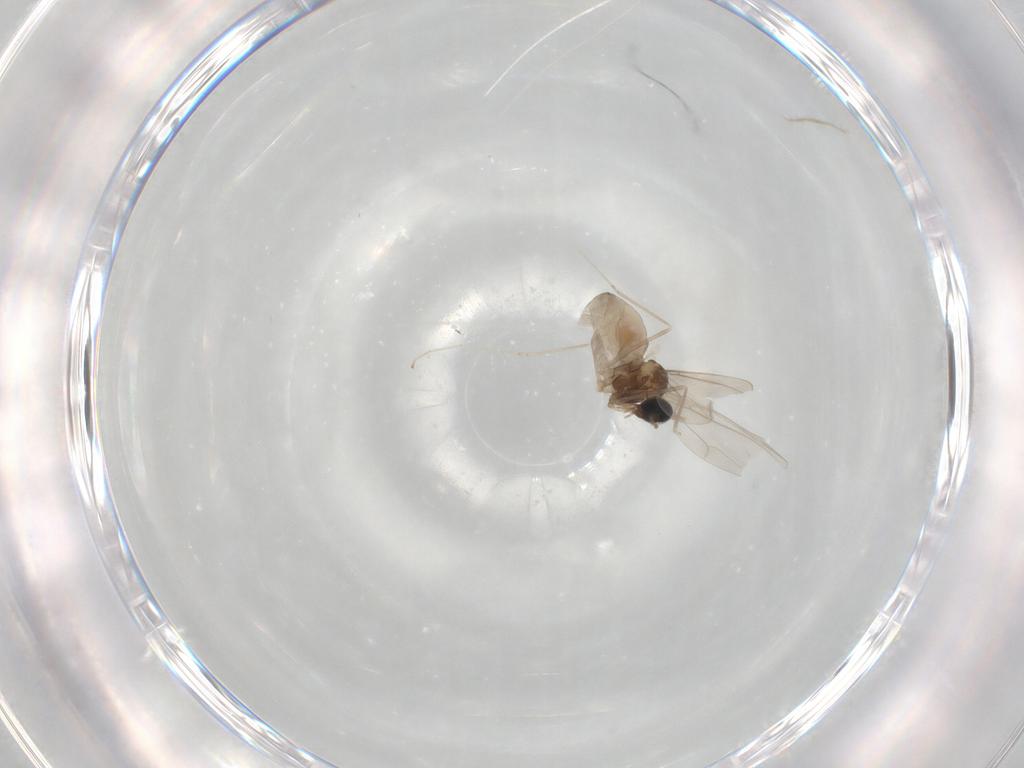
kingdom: Animalia
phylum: Arthropoda
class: Insecta
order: Diptera
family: Cecidomyiidae
